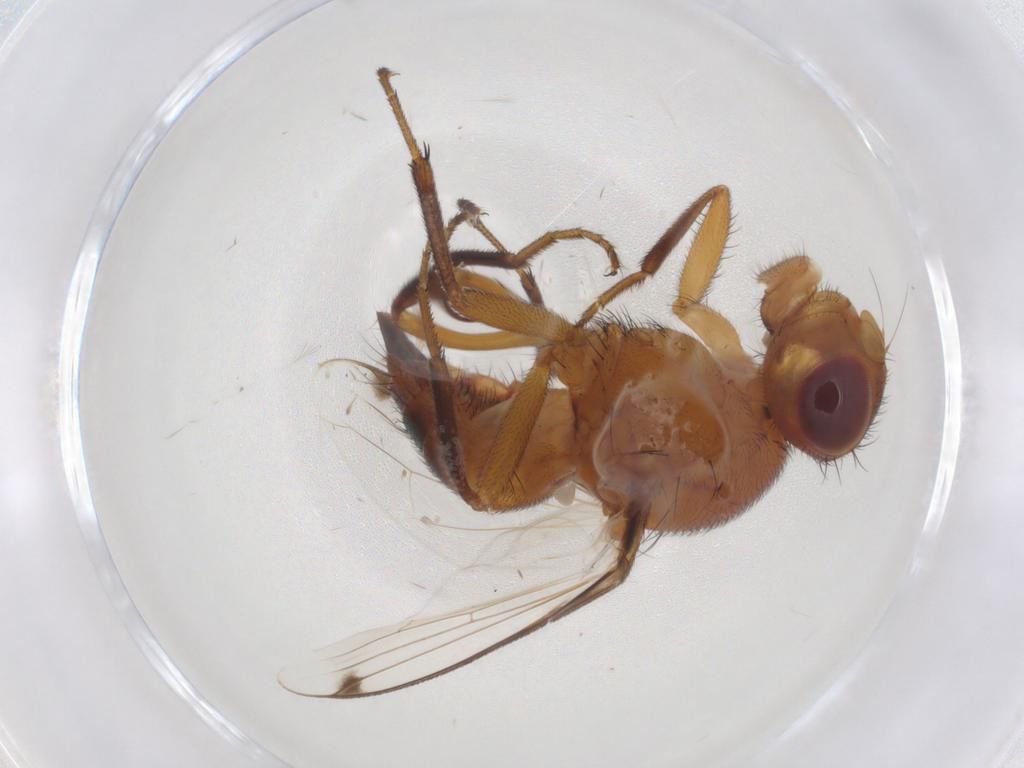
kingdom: Animalia
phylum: Arthropoda
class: Insecta
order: Diptera
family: Richardiidae
